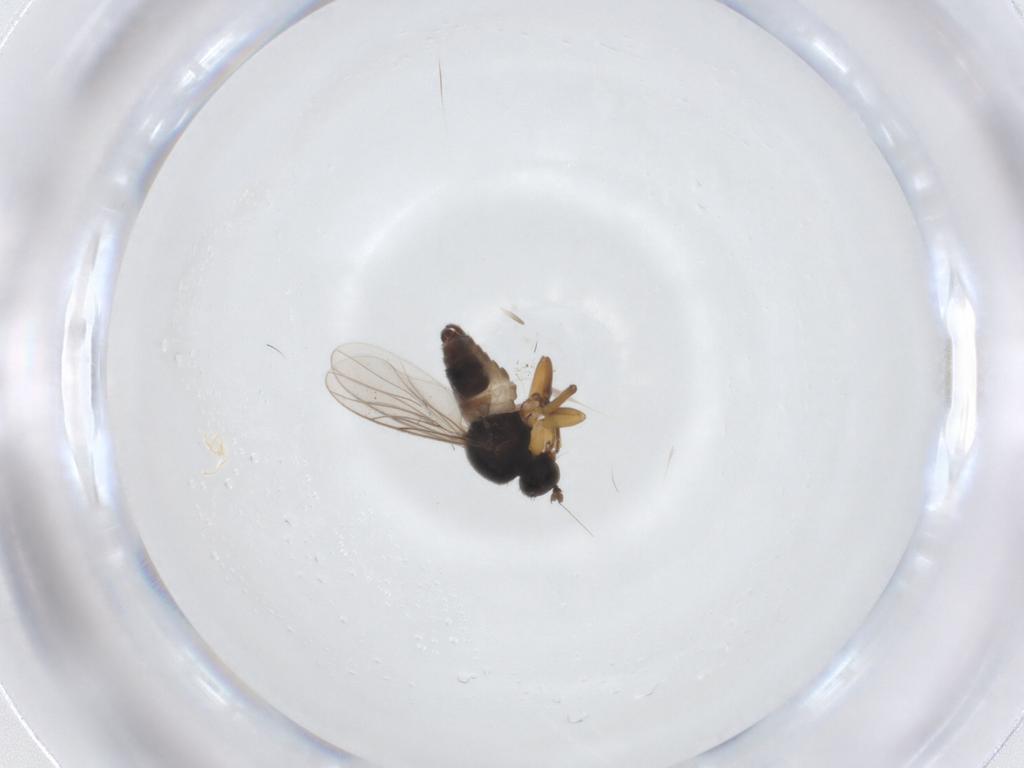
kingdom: Animalia
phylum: Arthropoda
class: Insecta
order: Diptera
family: Hybotidae
